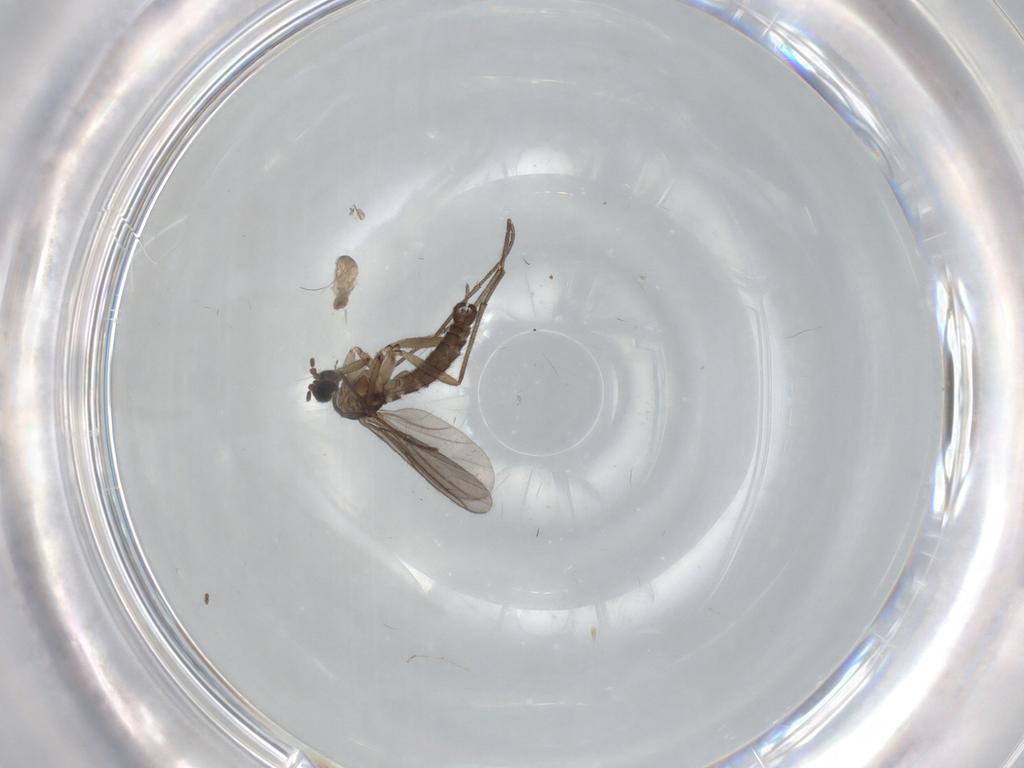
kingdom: Animalia
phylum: Arthropoda
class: Insecta
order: Diptera
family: Sciaridae
